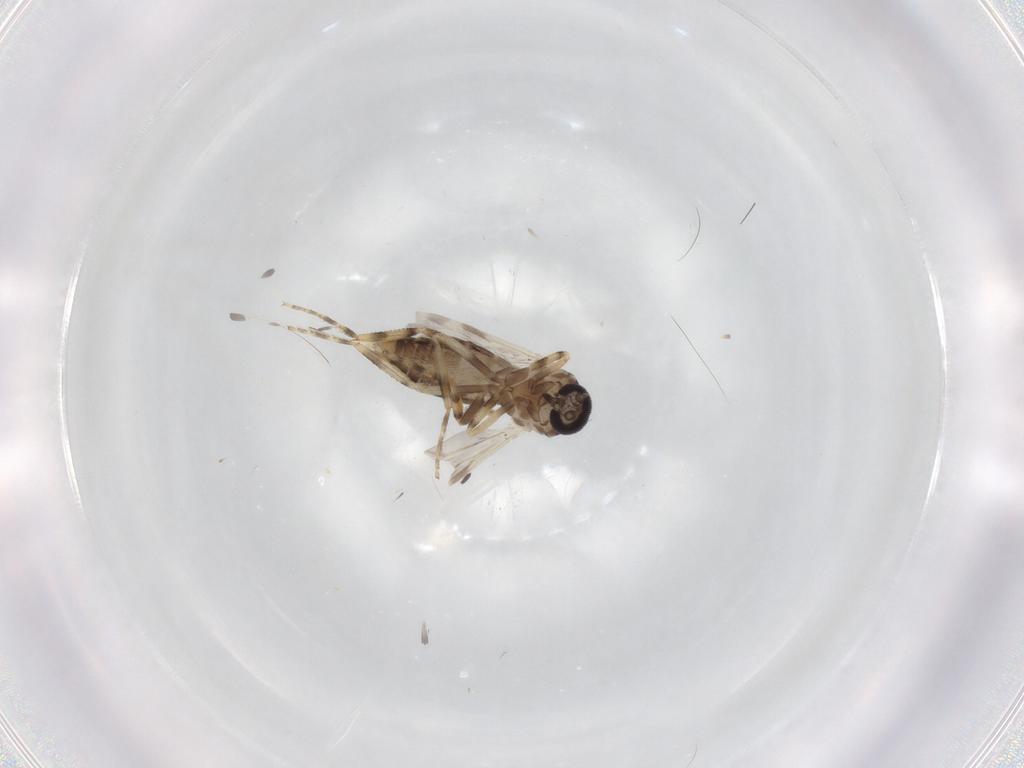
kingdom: Animalia
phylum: Arthropoda
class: Insecta
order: Diptera
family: Ceratopogonidae
